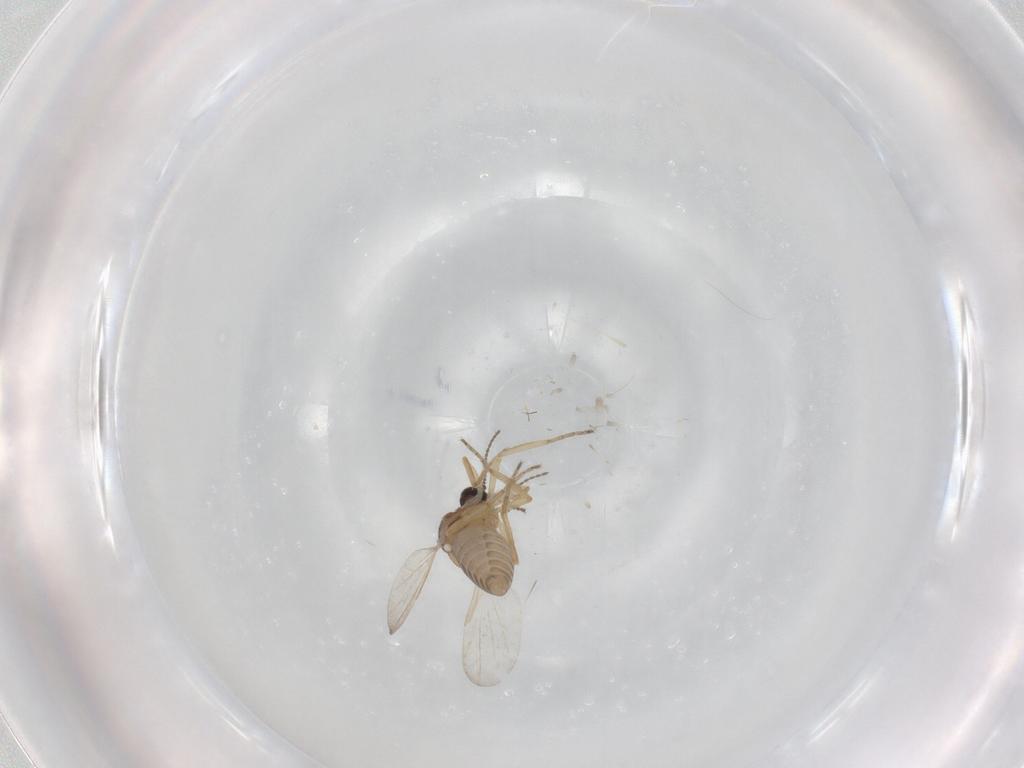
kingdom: Animalia
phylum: Arthropoda
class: Insecta
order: Diptera
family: Ceratopogonidae
